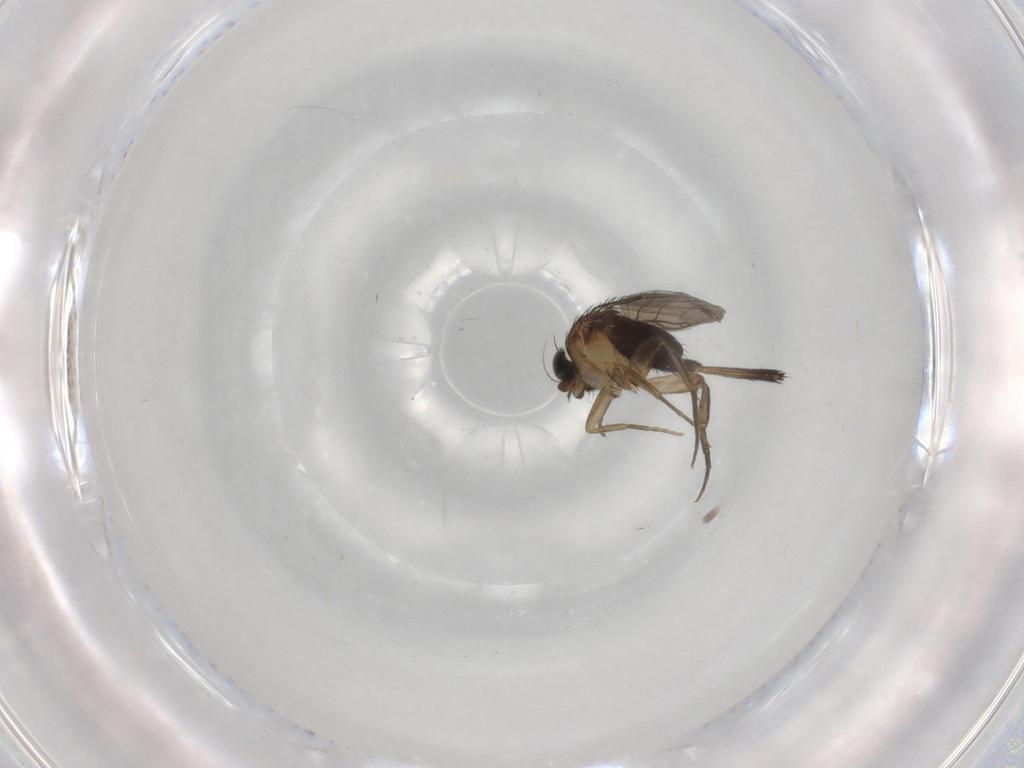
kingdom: Animalia
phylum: Arthropoda
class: Insecta
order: Diptera
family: Phoridae
